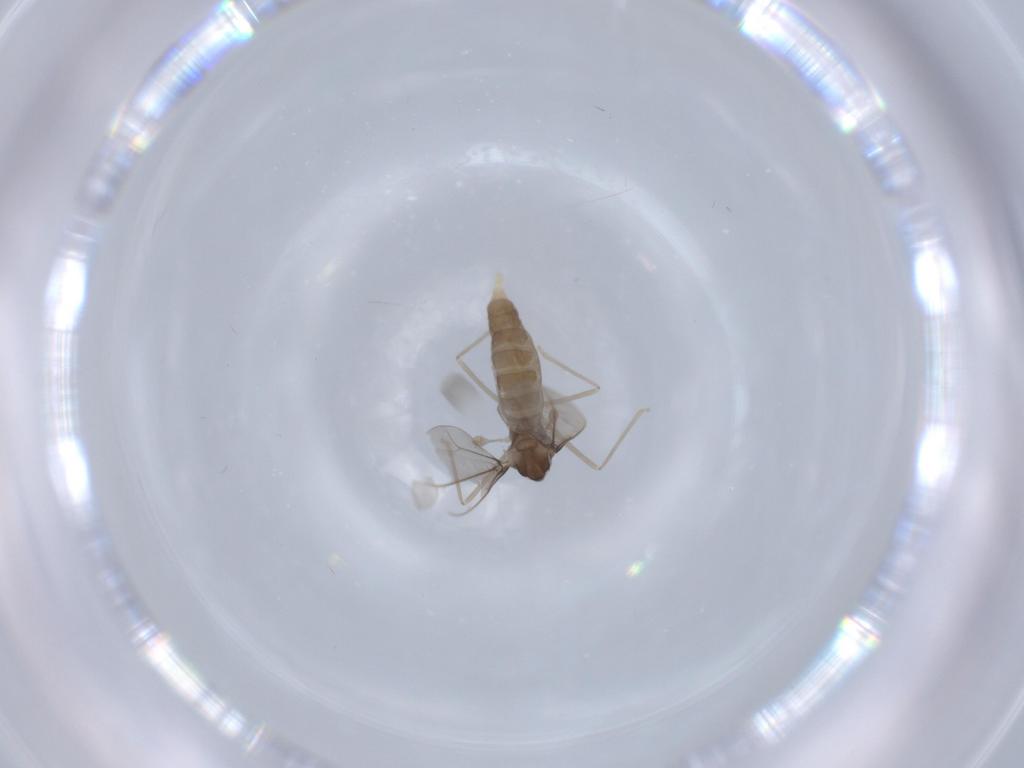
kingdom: Animalia
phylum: Arthropoda
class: Insecta
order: Diptera
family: Cecidomyiidae
